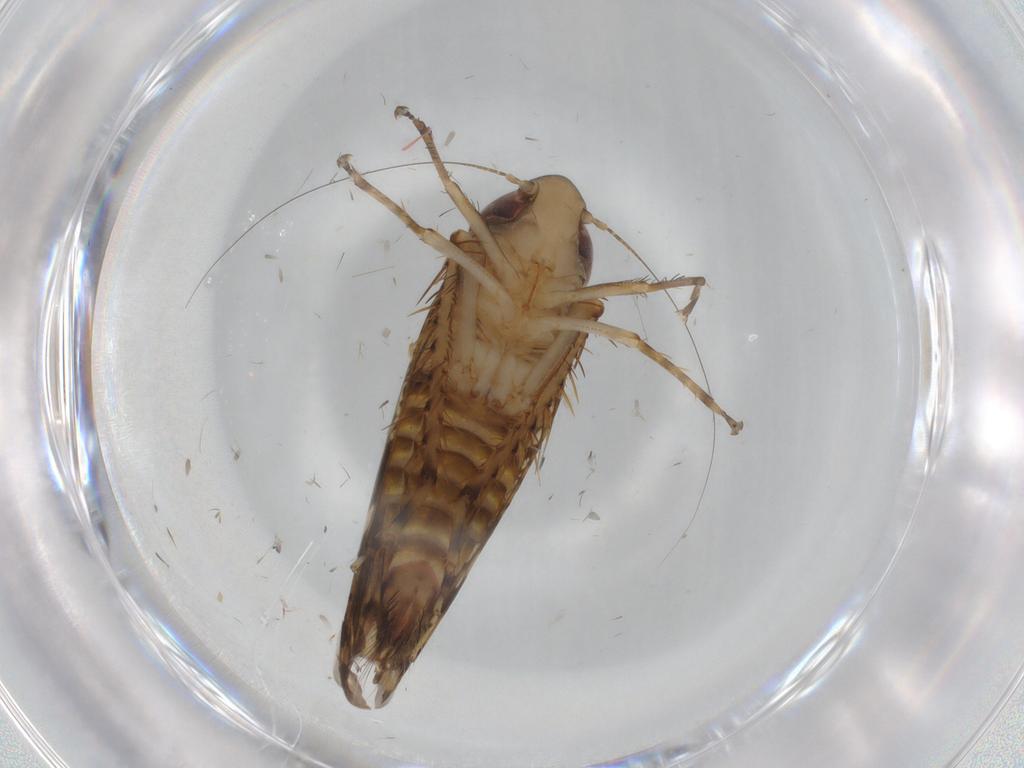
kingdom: Animalia
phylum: Arthropoda
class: Insecta
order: Hemiptera
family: Cicadellidae
